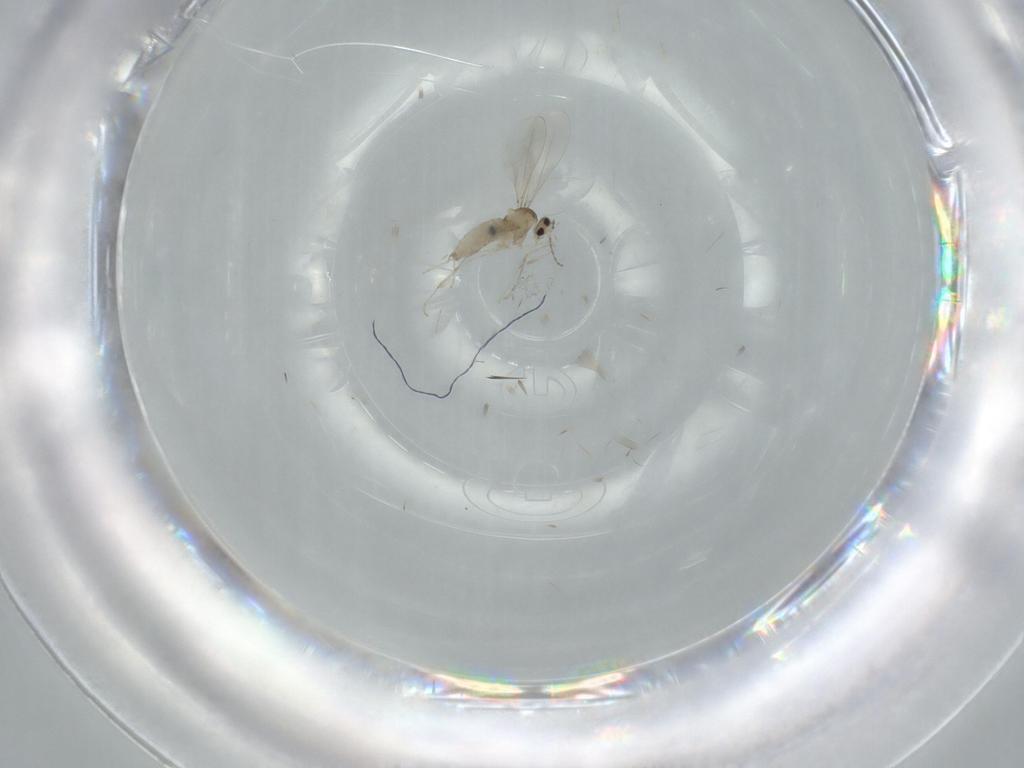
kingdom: Animalia
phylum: Arthropoda
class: Insecta
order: Diptera
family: Cecidomyiidae
